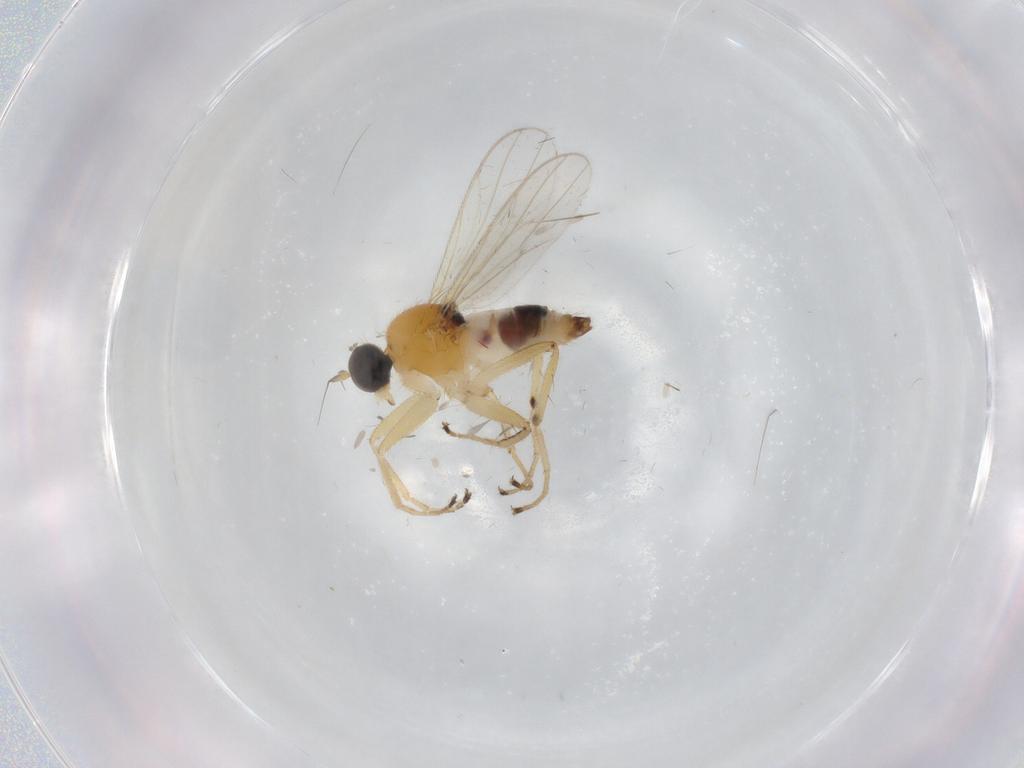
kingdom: Animalia
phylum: Arthropoda
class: Insecta
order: Diptera
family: Hybotidae
